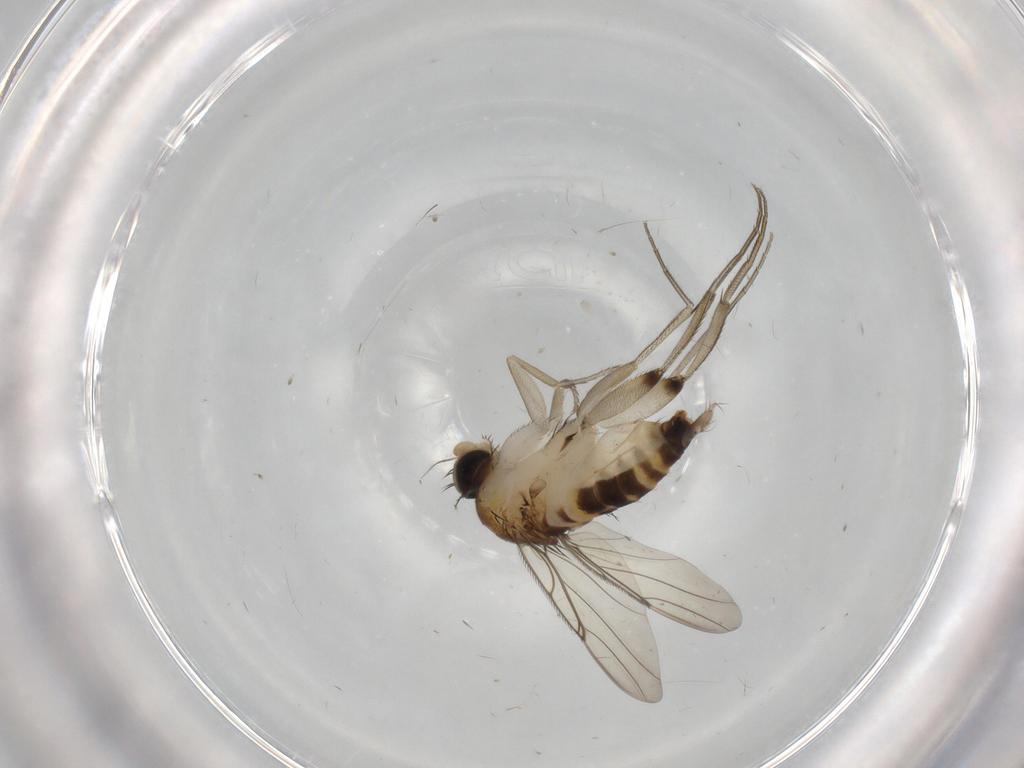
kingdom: Animalia
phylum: Arthropoda
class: Insecta
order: Diptera
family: Phoridae
